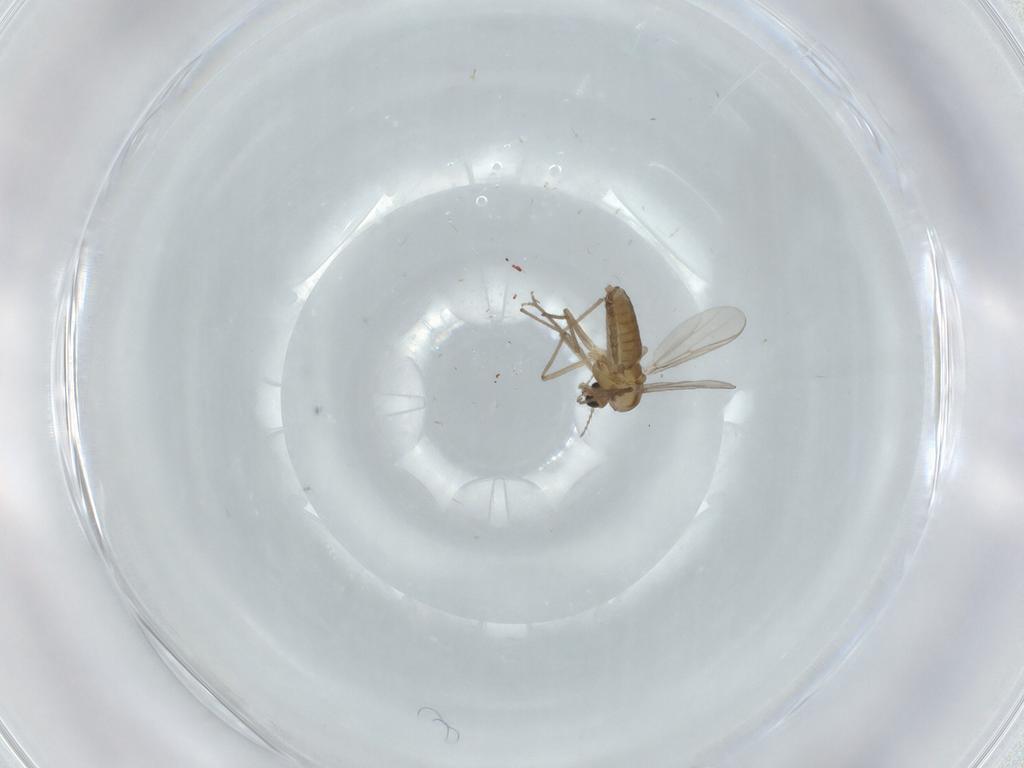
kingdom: Animalia
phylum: Arthropoda
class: Insecta
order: Diptera
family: Chironomidae
